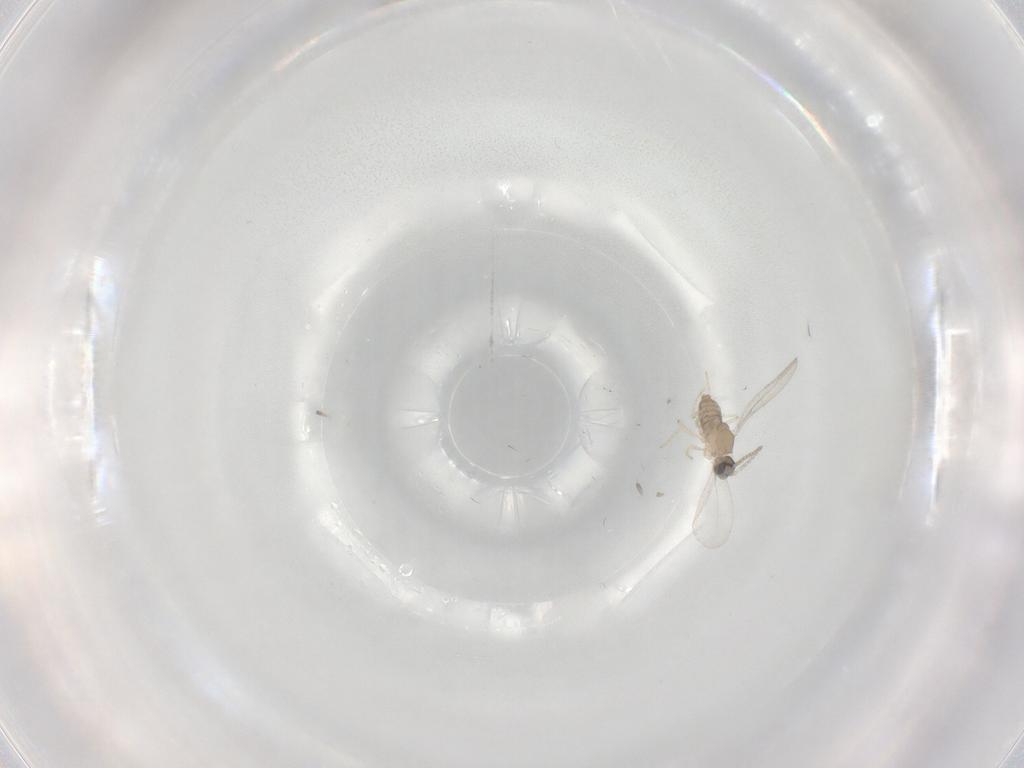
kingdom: Animalia
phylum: Arthropoda
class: Insecta
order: Diptera
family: Cecidomyiidae
